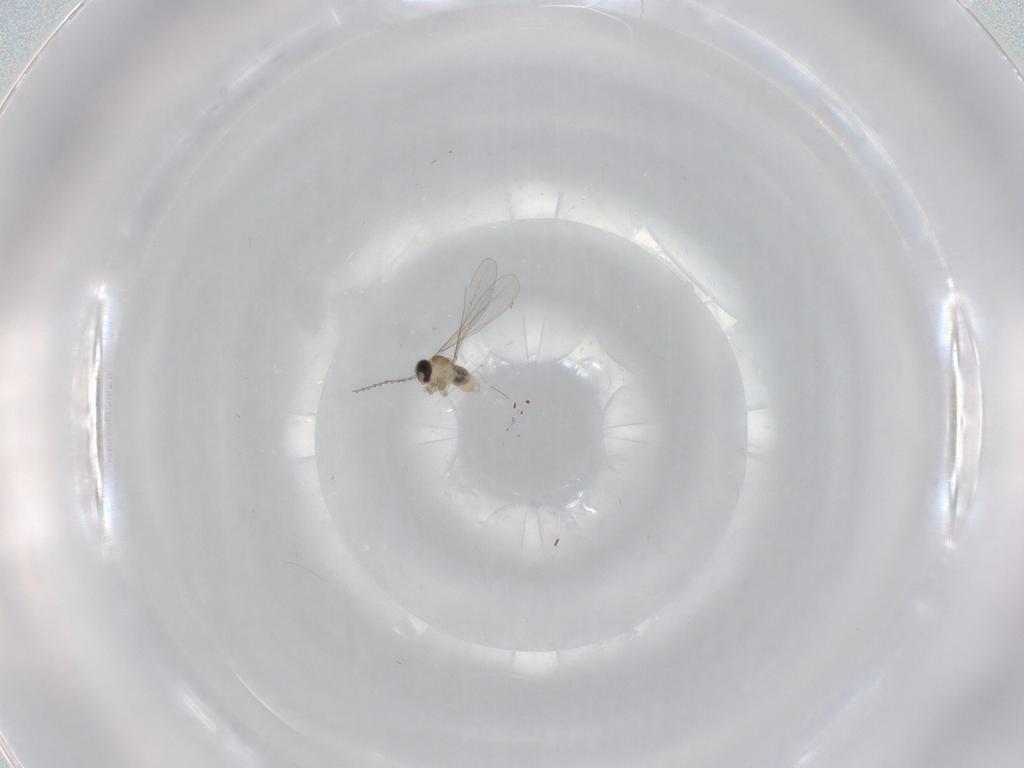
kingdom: Animalia
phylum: Arthropoda
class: Insecta
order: Diptera
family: Cecidomyiidae
